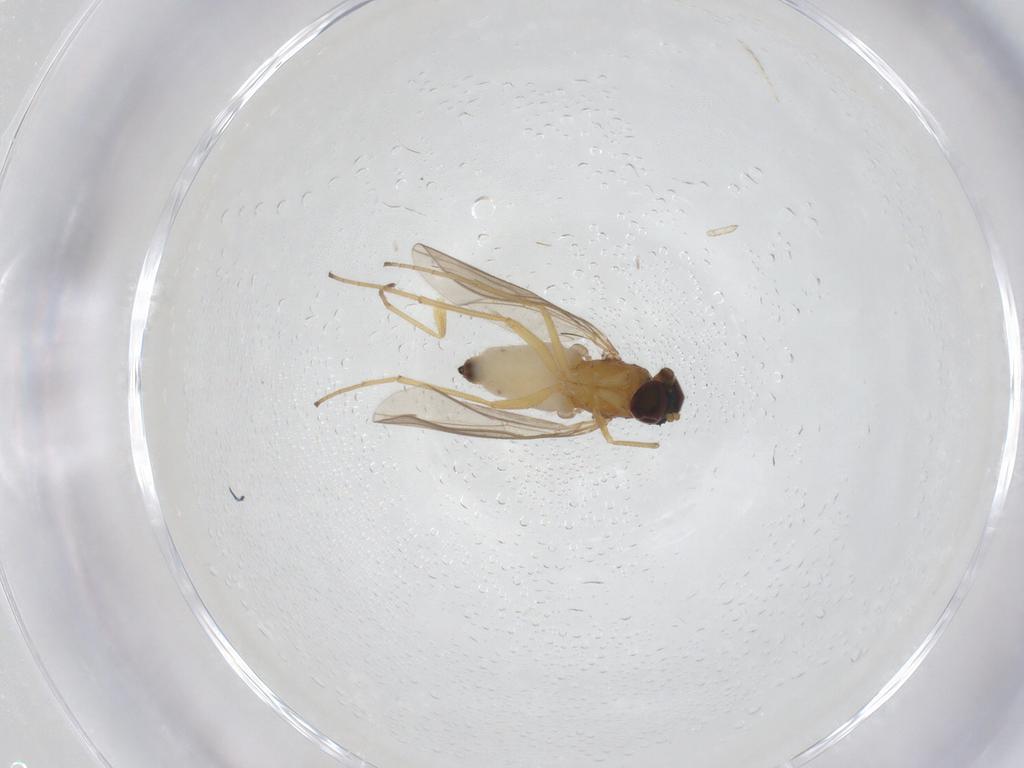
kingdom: Animalia
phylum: Arthropoda
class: Insecta
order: Diptera
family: Dolichopodidae
